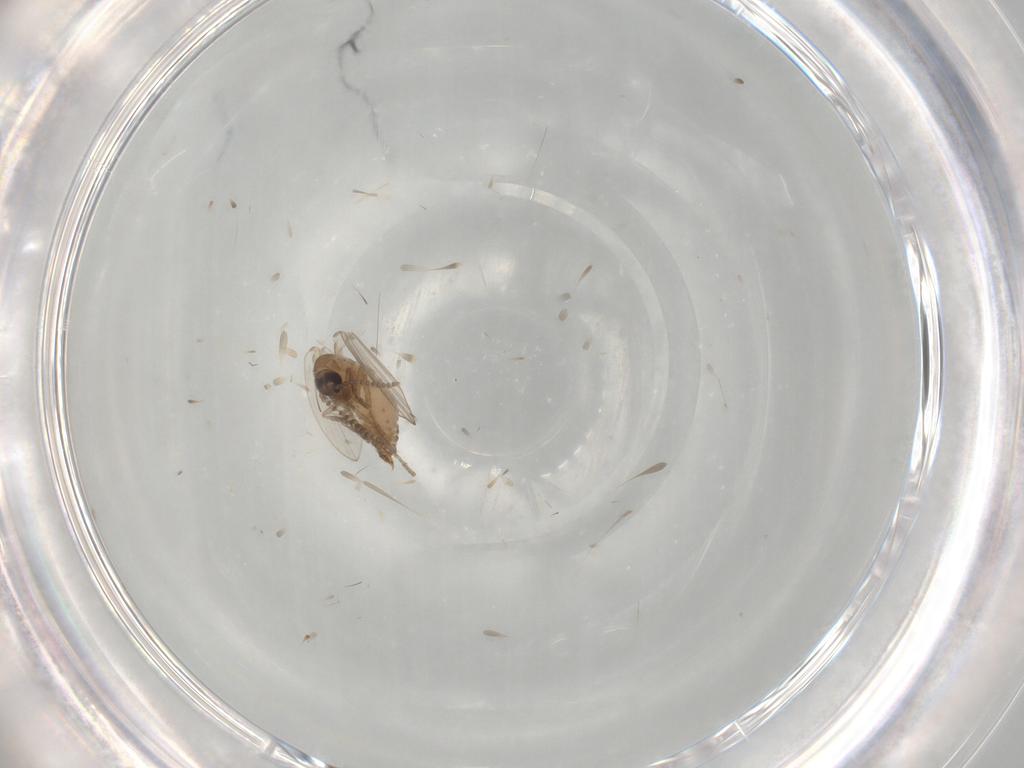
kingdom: Animalia
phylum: Arthropoda
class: Insecta
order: Diptera
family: Psychodidae
